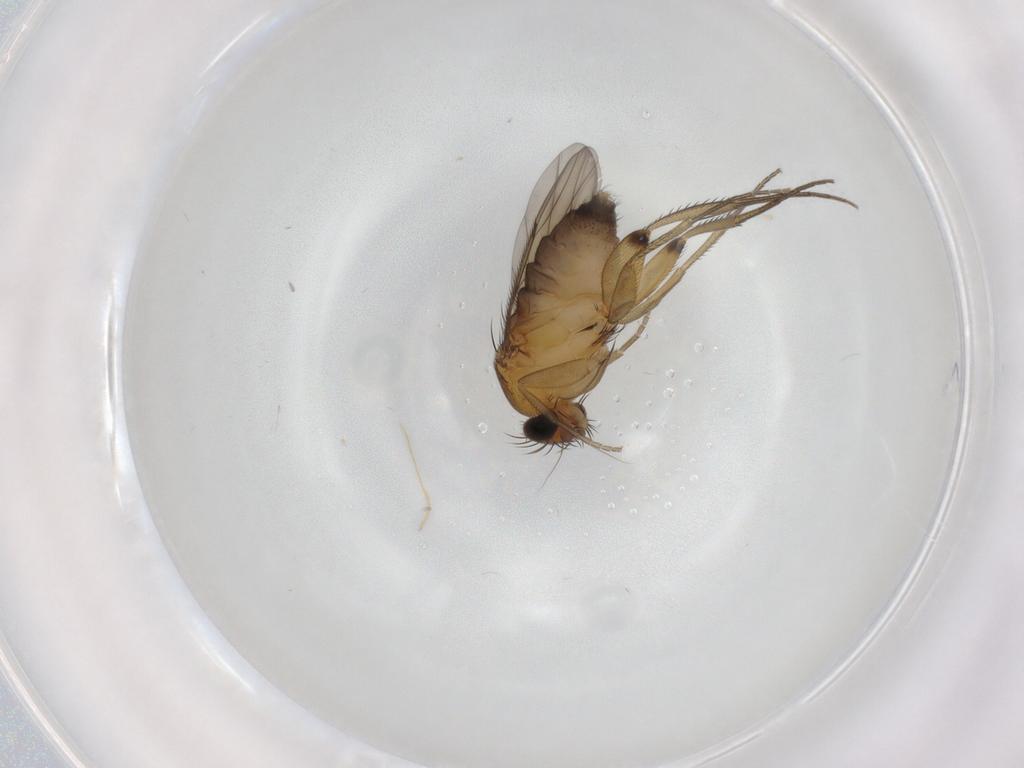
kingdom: Animalia
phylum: Arthropoda
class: Insecta
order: Diptera
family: Phoridae
